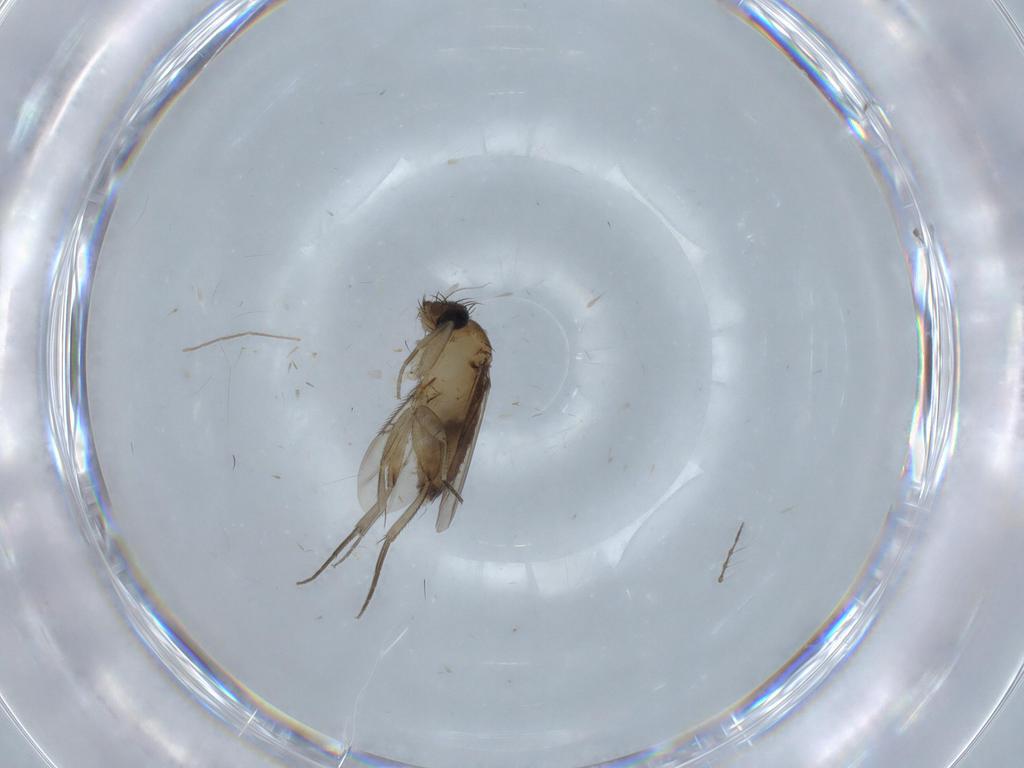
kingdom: Animalia
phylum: Arthropoda
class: Insecta
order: Diptera
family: Phoridae
